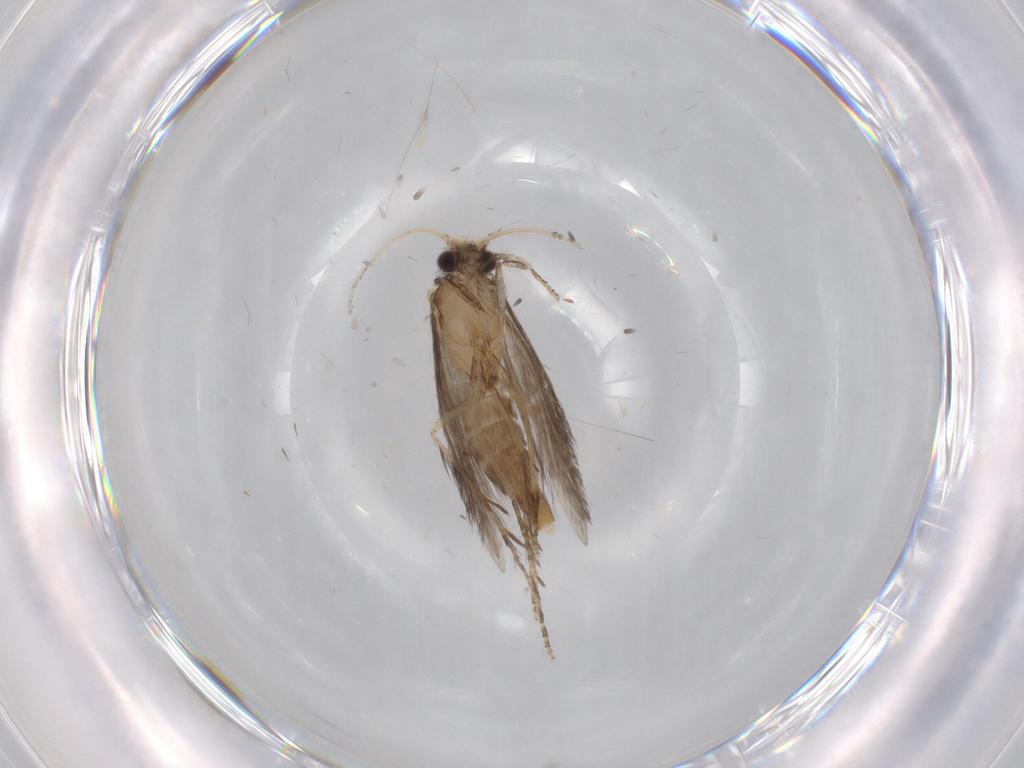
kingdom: Animalia
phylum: Arthropoda
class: Insecta
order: Trichoptera
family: Hydroptilidae
